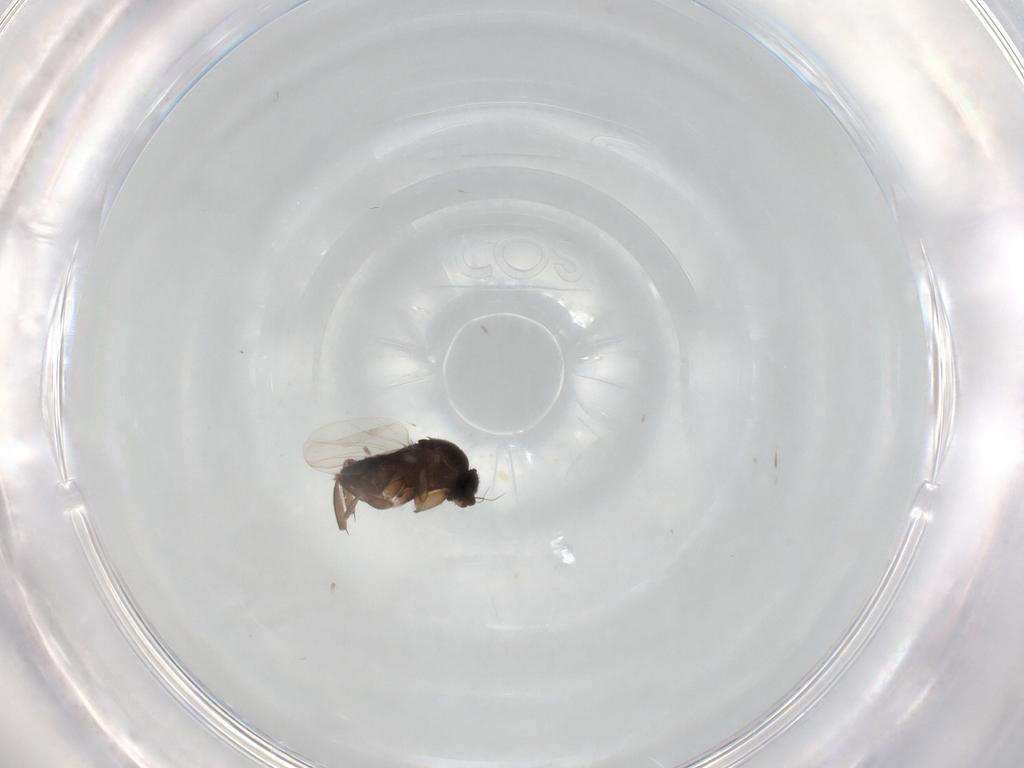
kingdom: Animalia
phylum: Arthropoda
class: Insecta
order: Diptera
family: Phoridae
